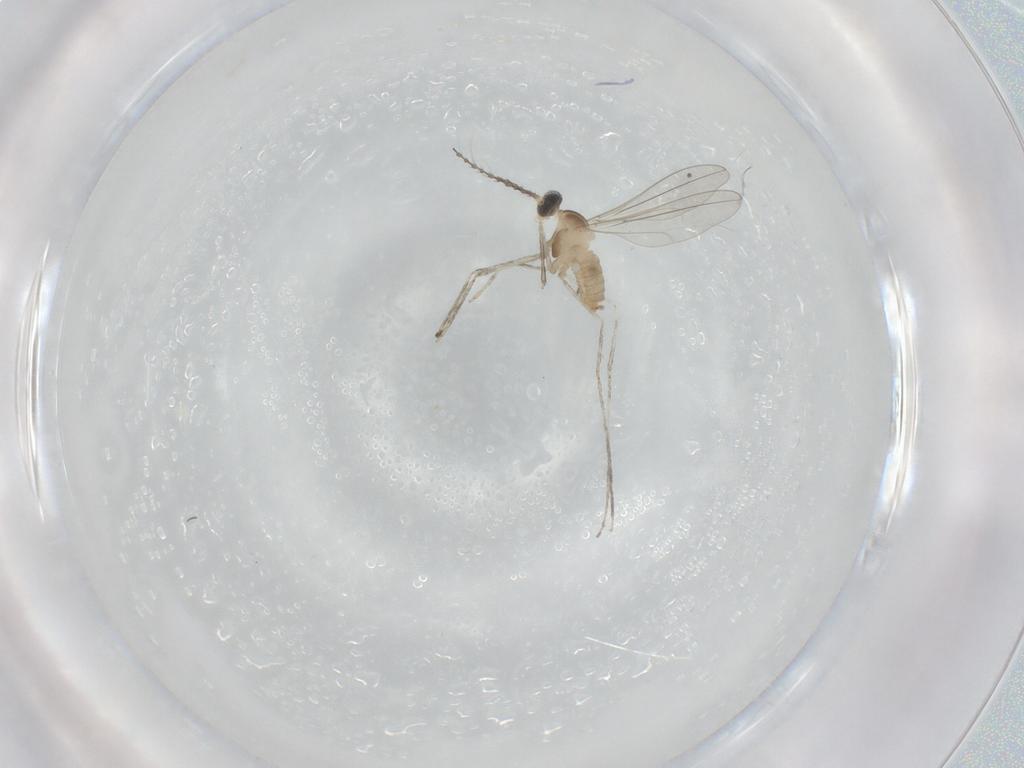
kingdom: Animalia
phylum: Arthropoda
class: Insecta
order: Diptera
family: Cecidomyiidae
